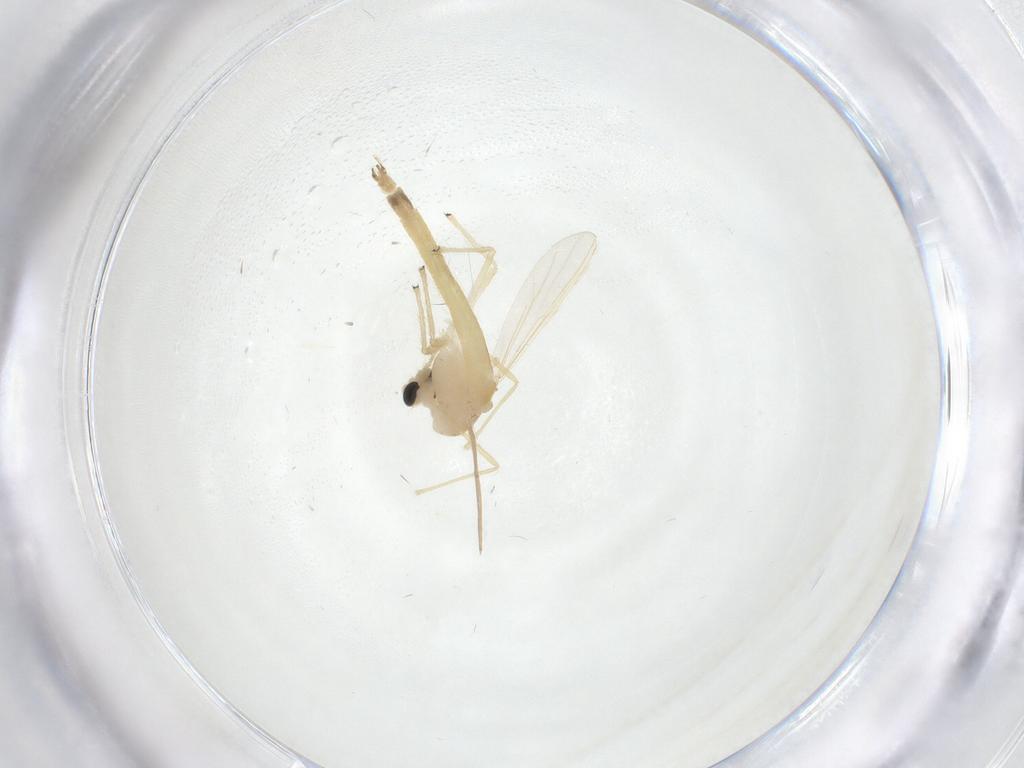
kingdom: Animalia
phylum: Arthropoda
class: Insecta
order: Diptera
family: Chironomidae
